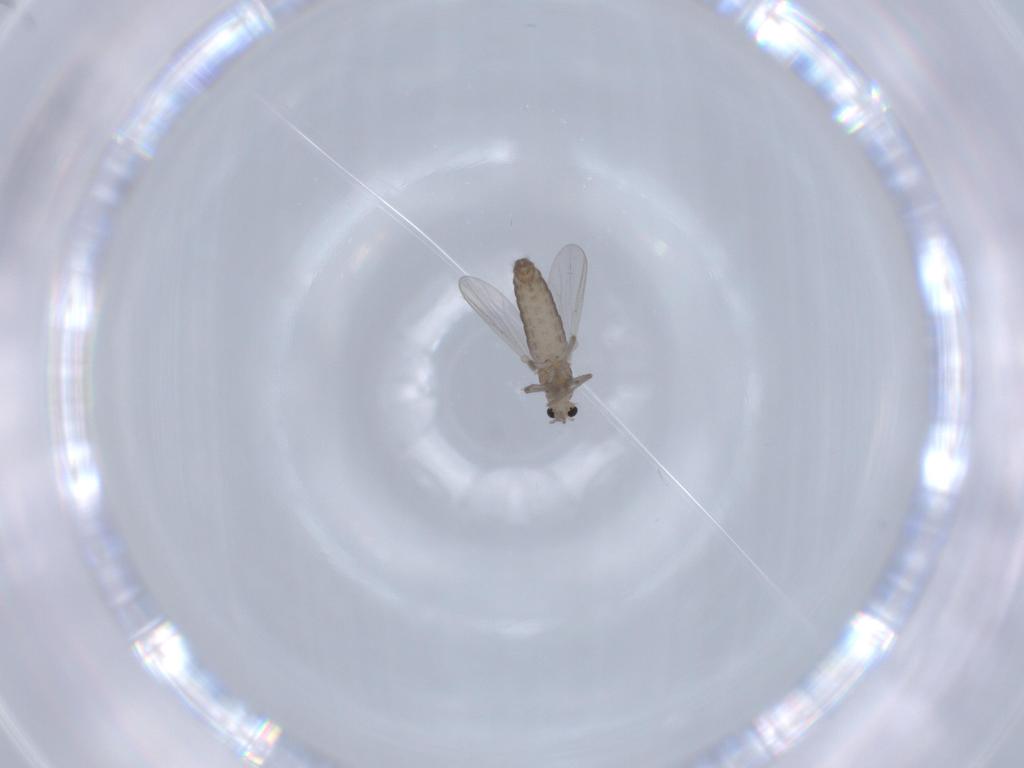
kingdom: Animalia
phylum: Arthropoda
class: Insecta
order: Diptera
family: Chironomidae
